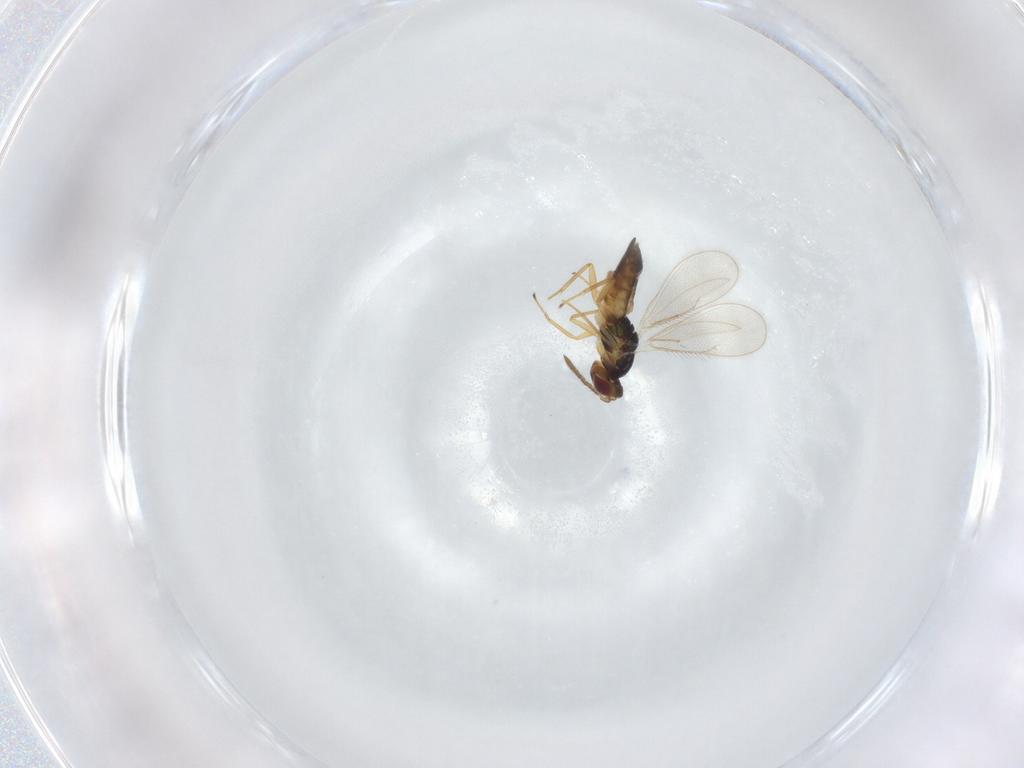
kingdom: Animalia
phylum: Arthropoda
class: Insecta
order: Hymenoptera
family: Eulophidae
